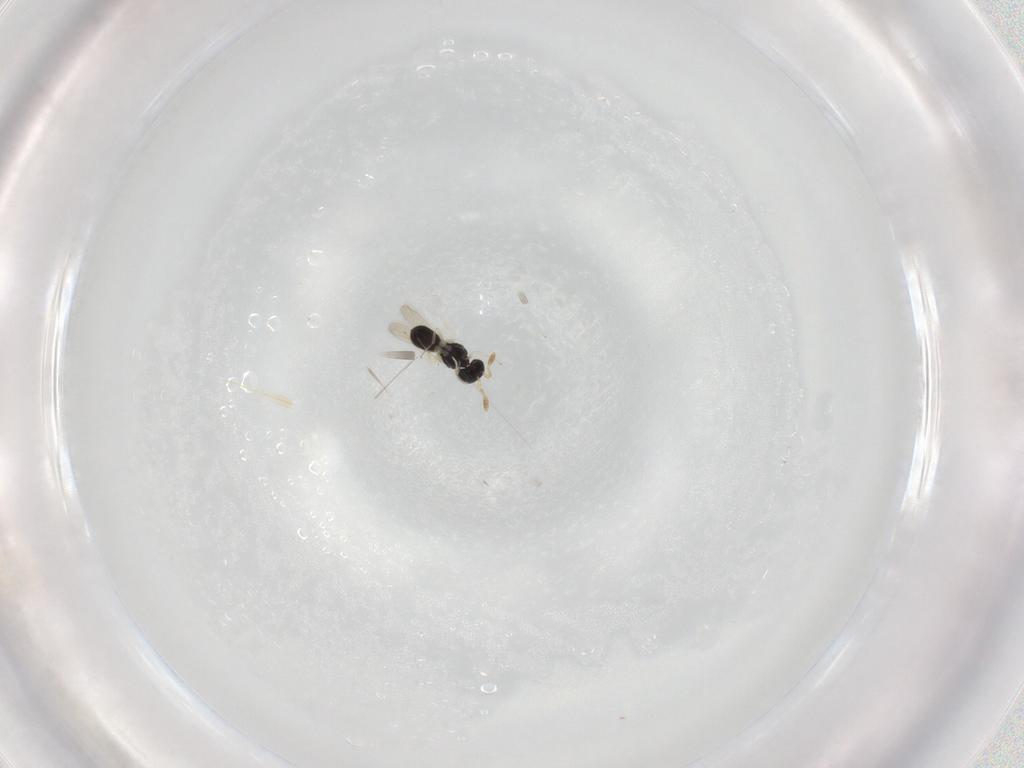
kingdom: Animalia
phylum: Arthropoda
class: Insecta
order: Hymenoptera
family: Scelionidae
